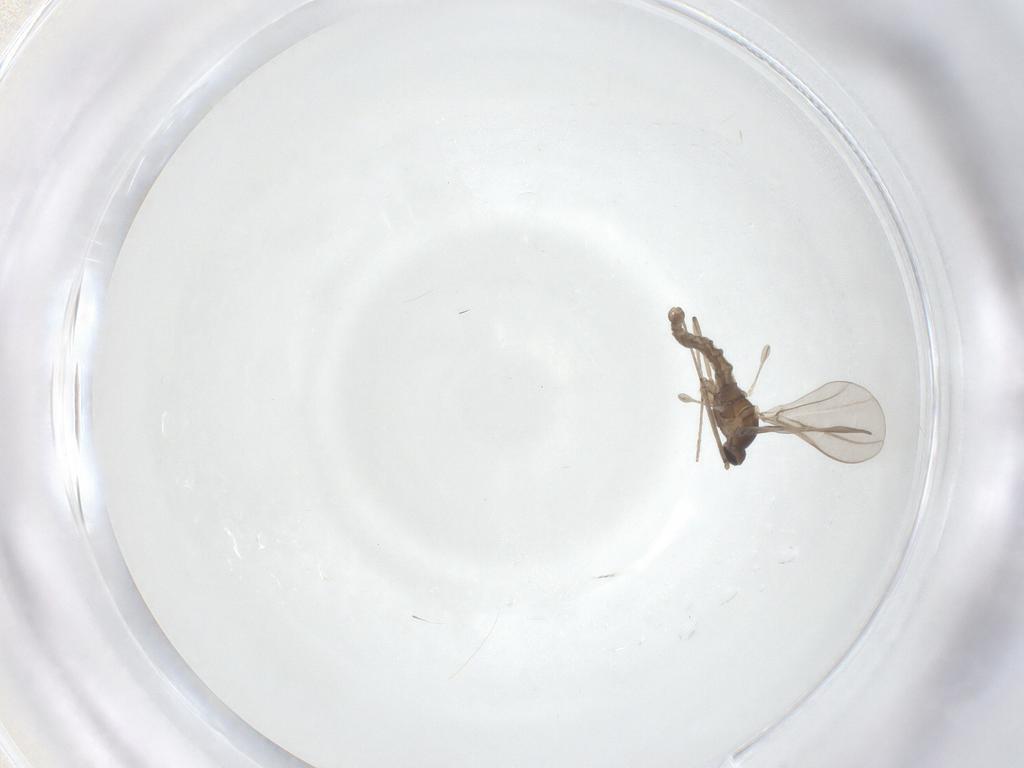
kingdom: Animalia
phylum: Arthropoda
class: Insecta
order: Diptera
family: Cecidomyiidae
